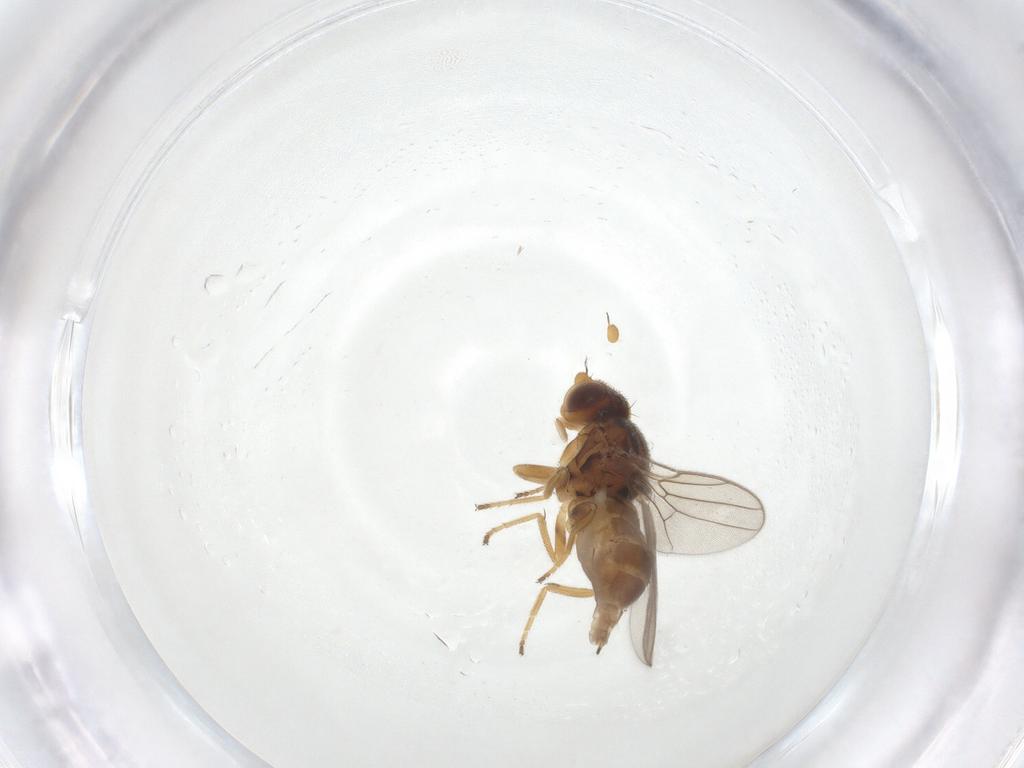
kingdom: Animalia
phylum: Arthropoda
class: Insecta
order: Diptera
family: Chloropidae
